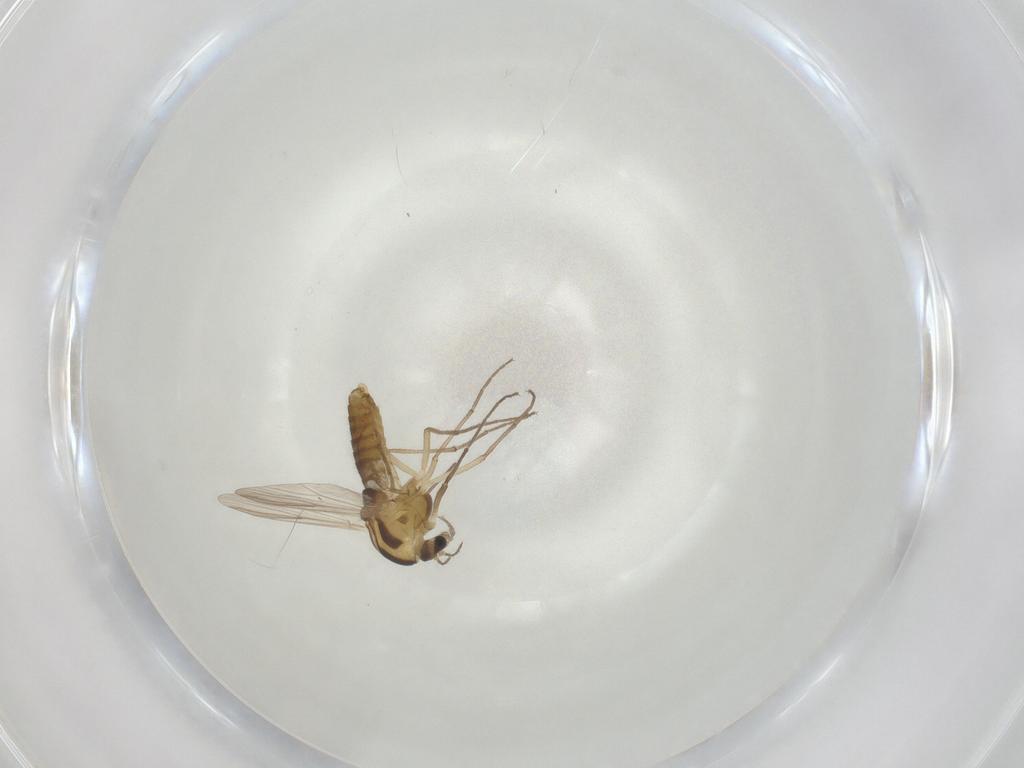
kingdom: Animalia
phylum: Arthropoda
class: Insecta
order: Diptera
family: Chironomidae
